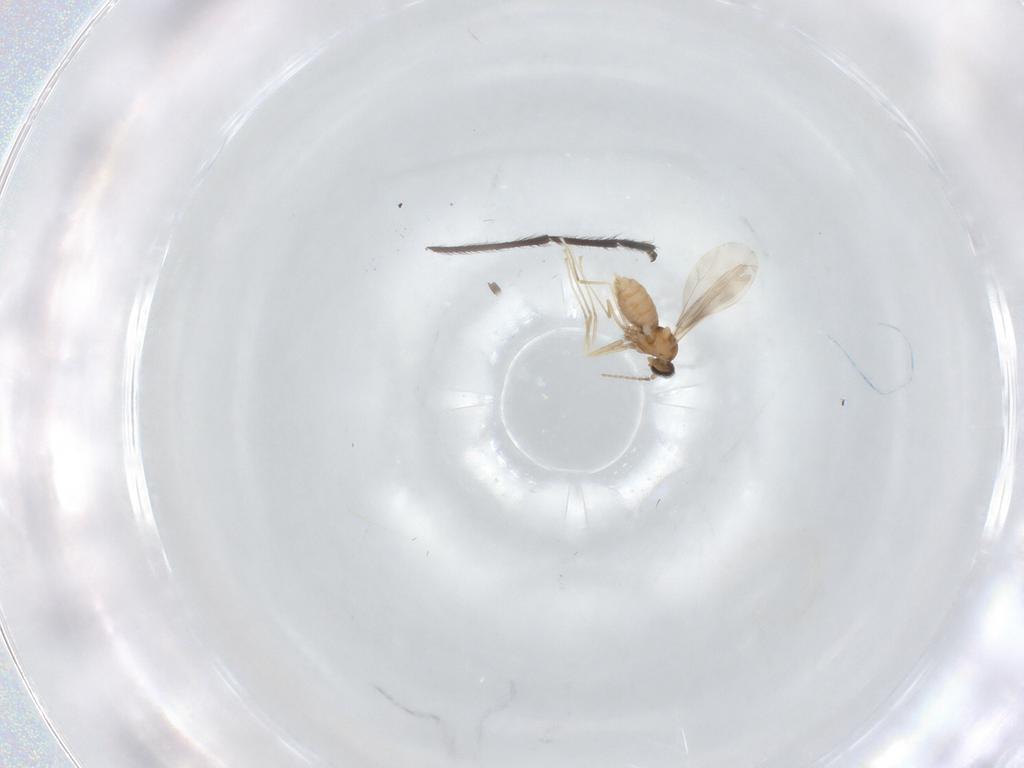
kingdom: Animalia
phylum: Arthropoda
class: Insecta
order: Diptera
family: Cecidomyiidae
